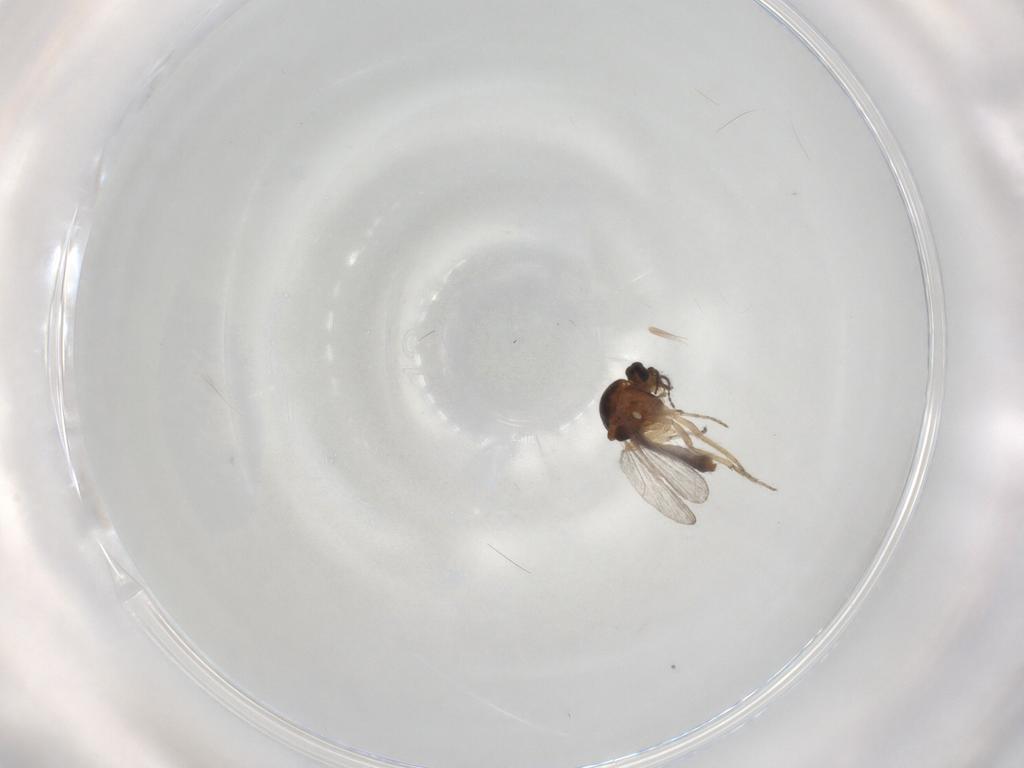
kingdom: Animalia
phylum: Arthropoda
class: Insecta
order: Diptera
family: Ceratopogonidae
